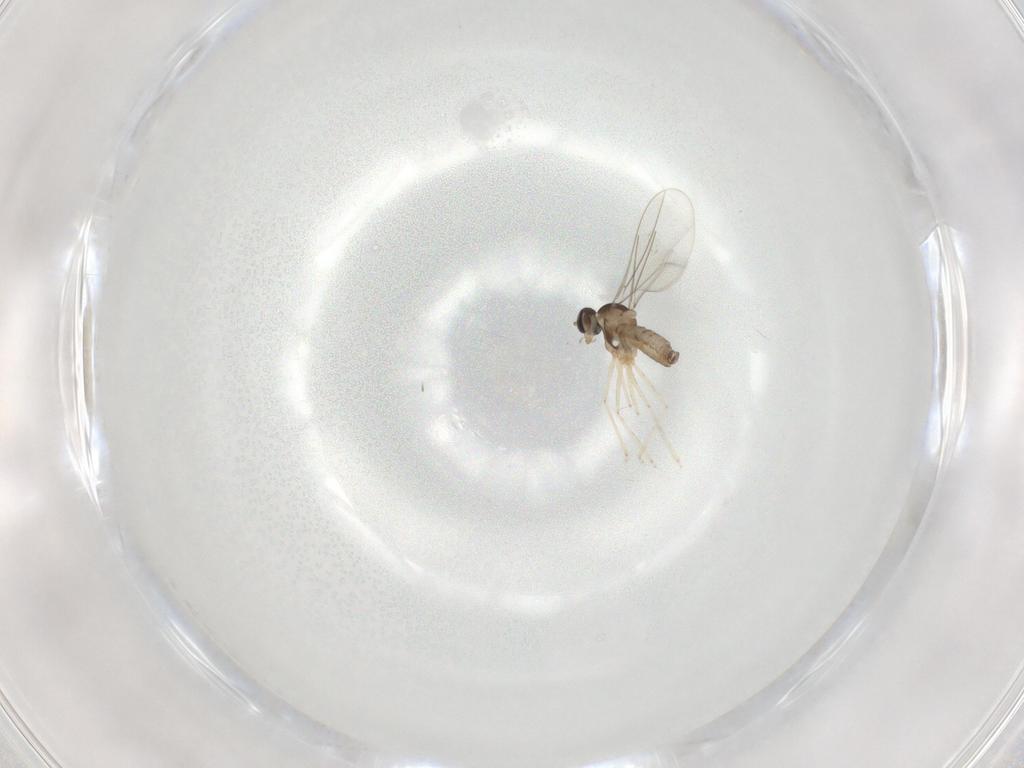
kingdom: Animalia
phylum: Arthropoda
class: Insecta
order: Diptera
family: Cecidomyiidae
